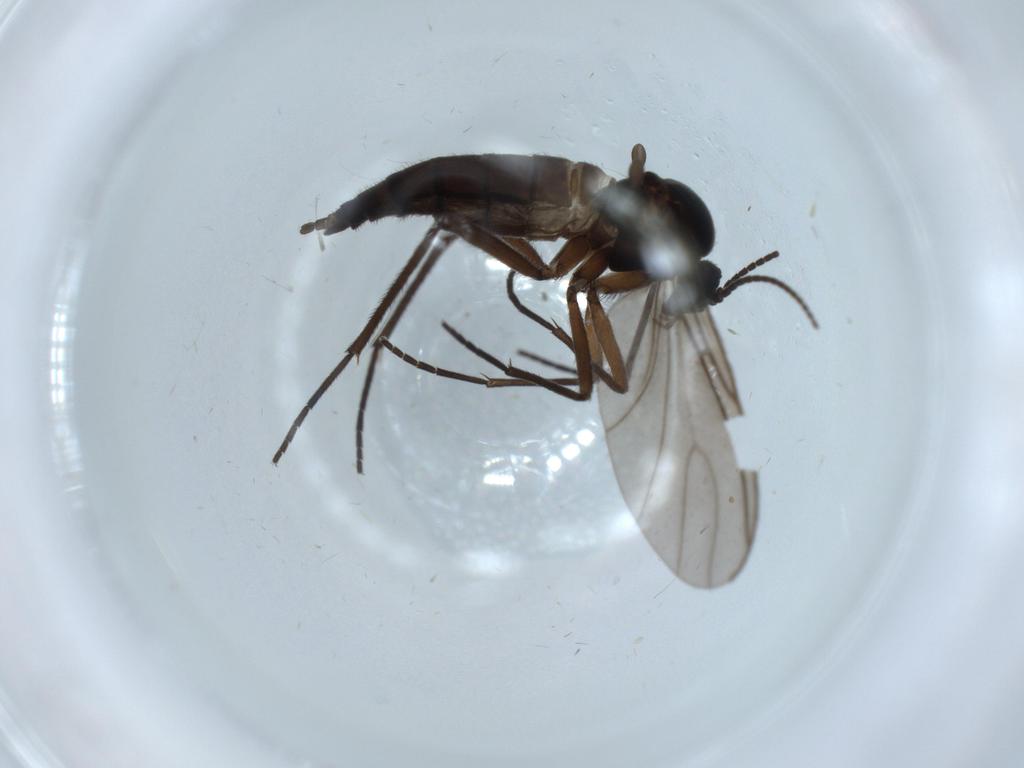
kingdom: Animalia
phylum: Arthropoda
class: Insecta
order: Diptera
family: Sciaridae
